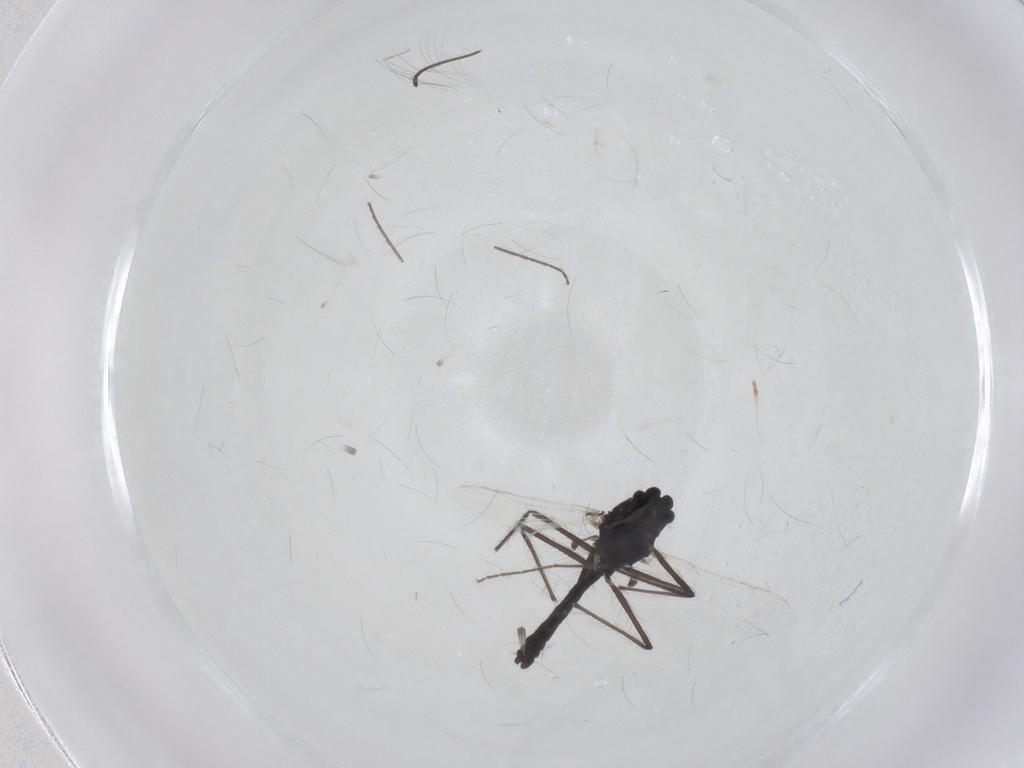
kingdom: Animalia
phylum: Arthropoda
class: Insecta
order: Diptera
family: Chironomidae
